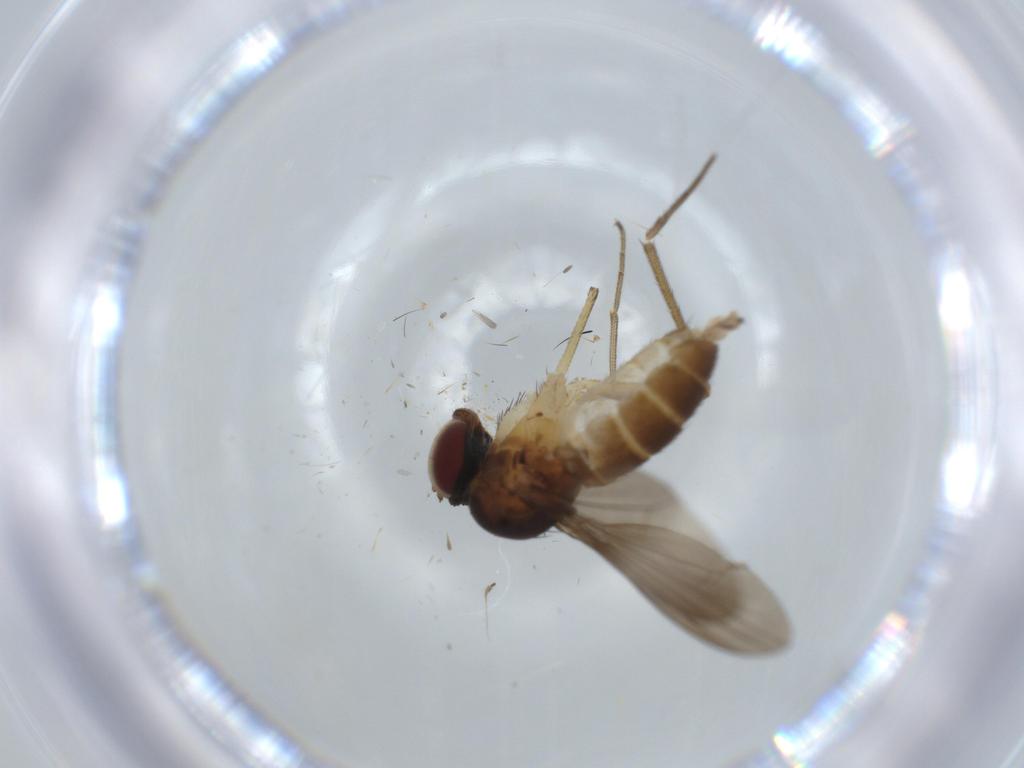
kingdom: Animalia
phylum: Arthropoda
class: Insecta
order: Diptera
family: Dolichopodidae
